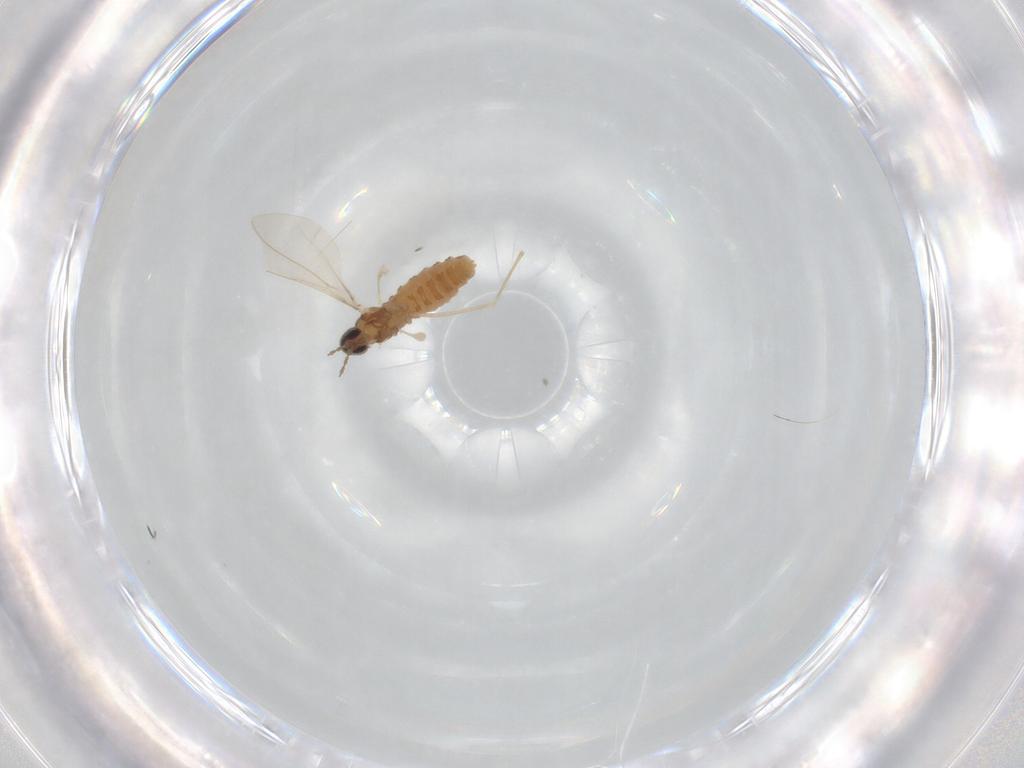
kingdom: Animalia
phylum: Arthropoda
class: Insecta
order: Diptera
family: Cecidomyiidae
